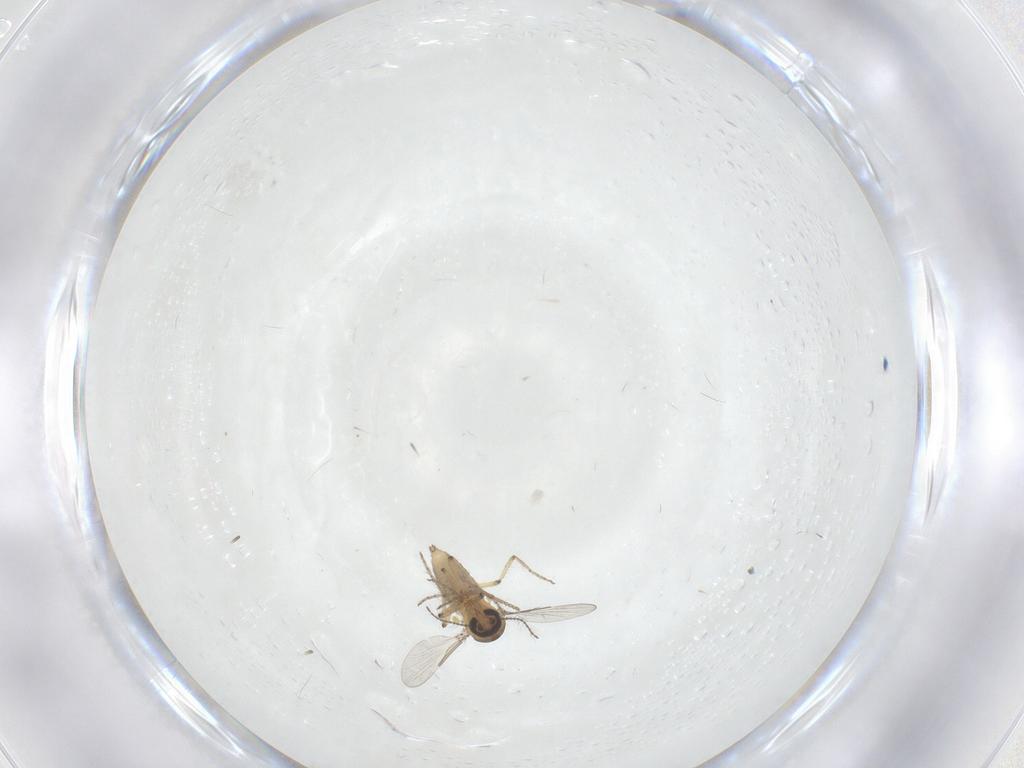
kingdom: Animalia
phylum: Arthropoda
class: Insecta
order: Diptera
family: Ceratopogonidae
